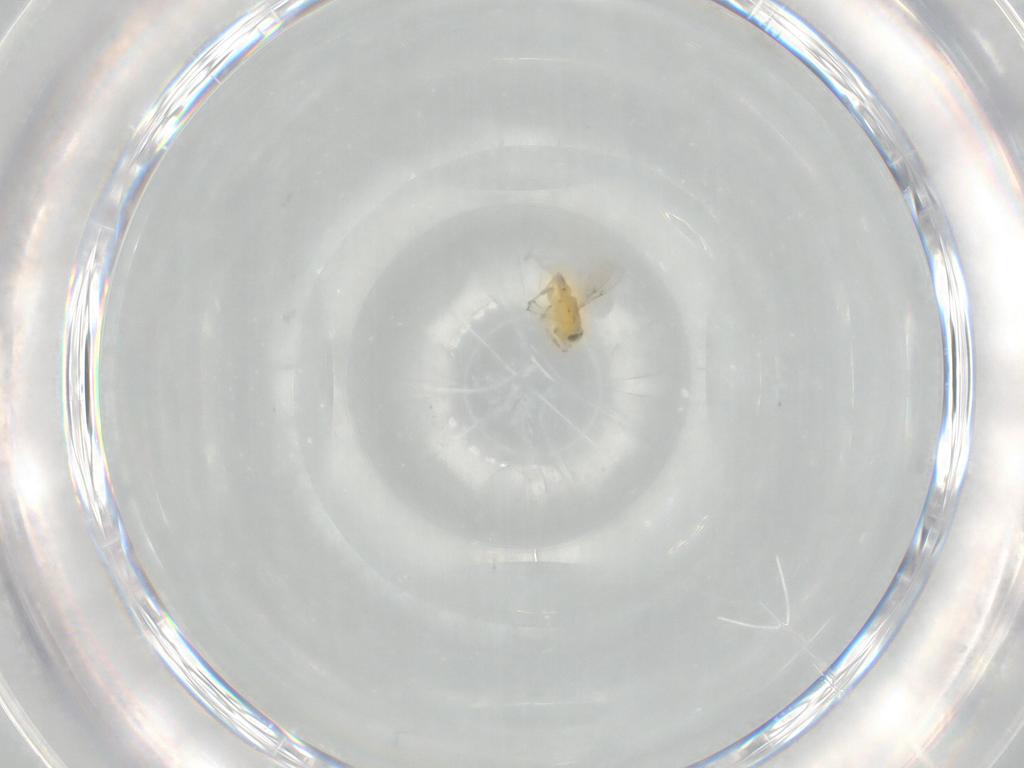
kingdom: Animalia
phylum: Arthropoda
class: Insecta
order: Hymenoptera
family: Encyrtidae
